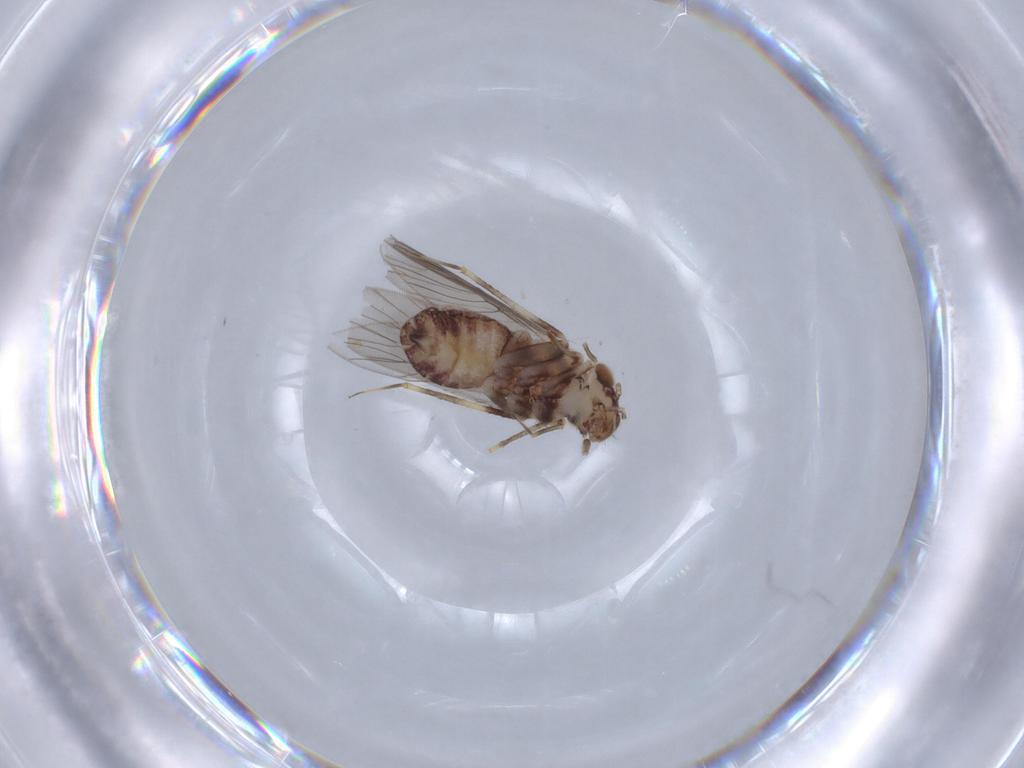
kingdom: Animalia
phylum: Arthropoda
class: Insecta
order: Psocodea
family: Lepidopsocidae
